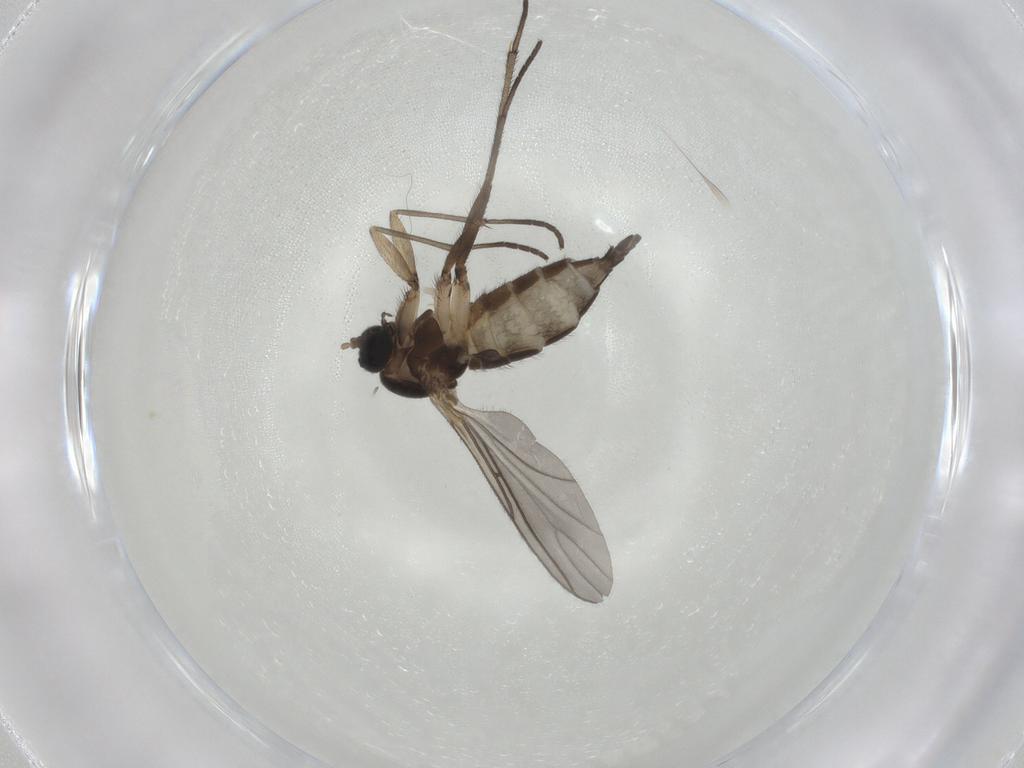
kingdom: Animalia
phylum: Arthropoda
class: Insecta
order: Diptera
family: Sciaridae
